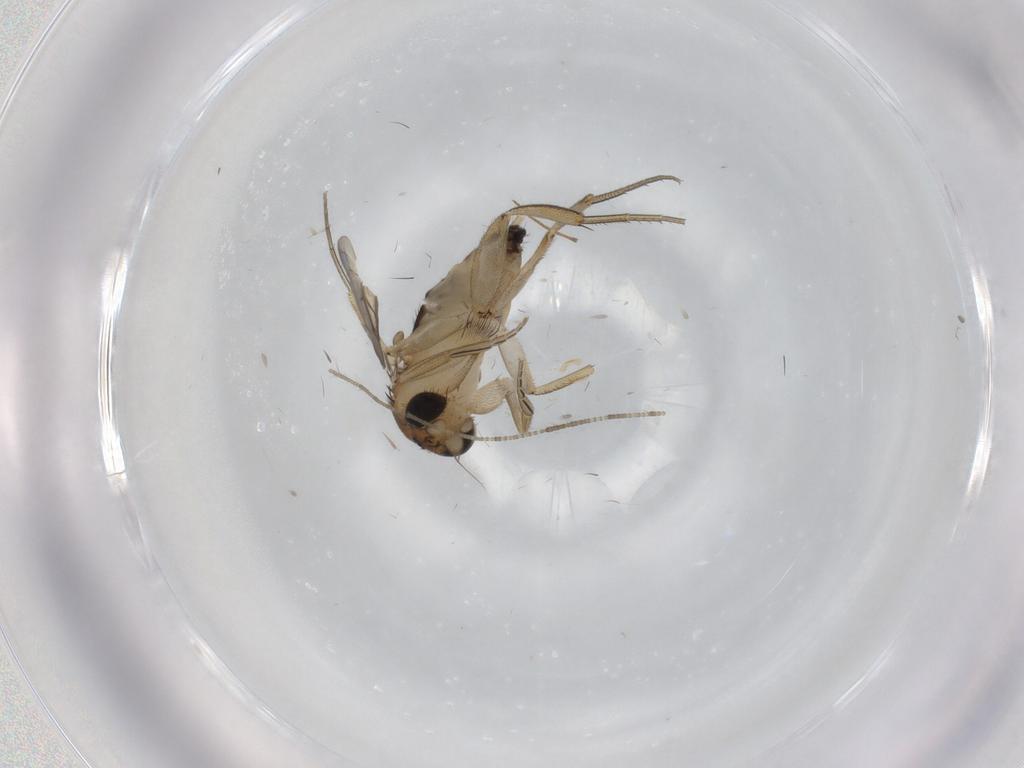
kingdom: Animalia
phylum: Arthropoda
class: Insecta
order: Diptera
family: Phoridae
